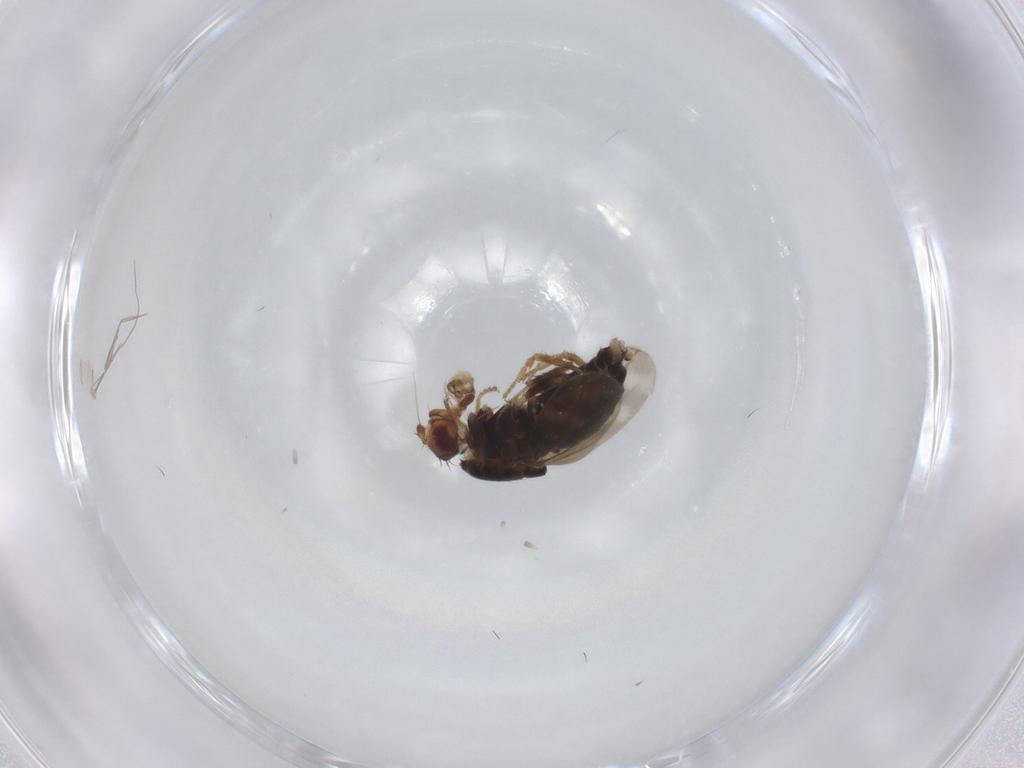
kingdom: Animalia
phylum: Arthropoda
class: Insecta
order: Diptera
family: Sphaeroceridae
